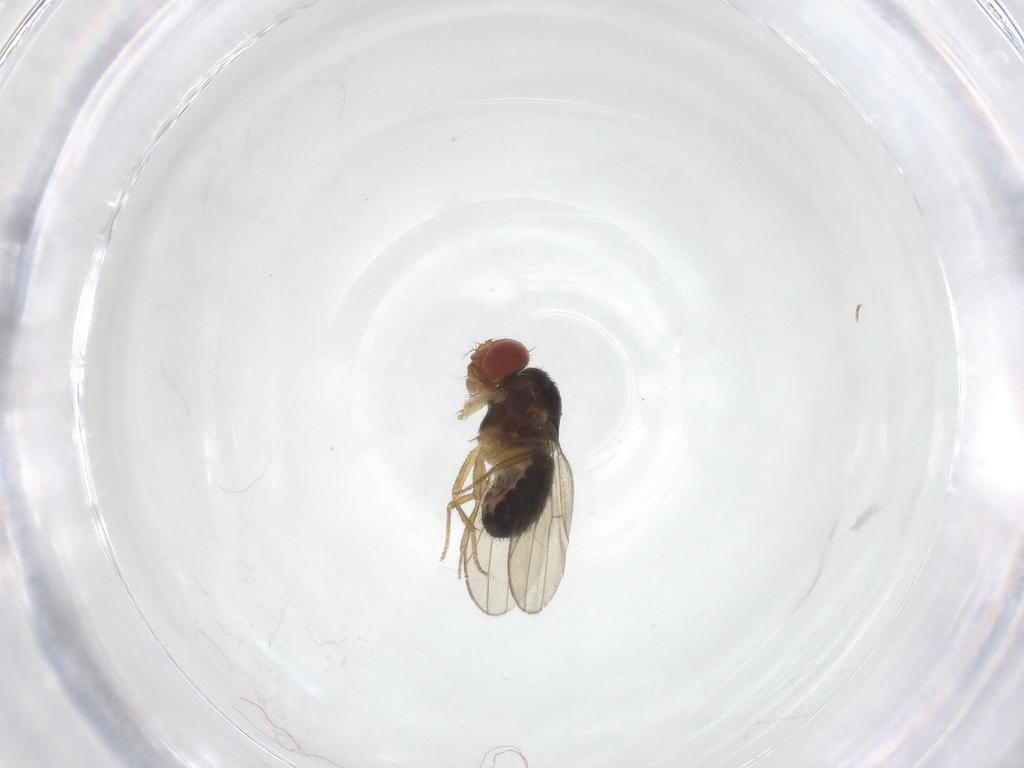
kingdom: Animalia
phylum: Arthropoda
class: Insecta
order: Diptera
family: Drosophilidae
